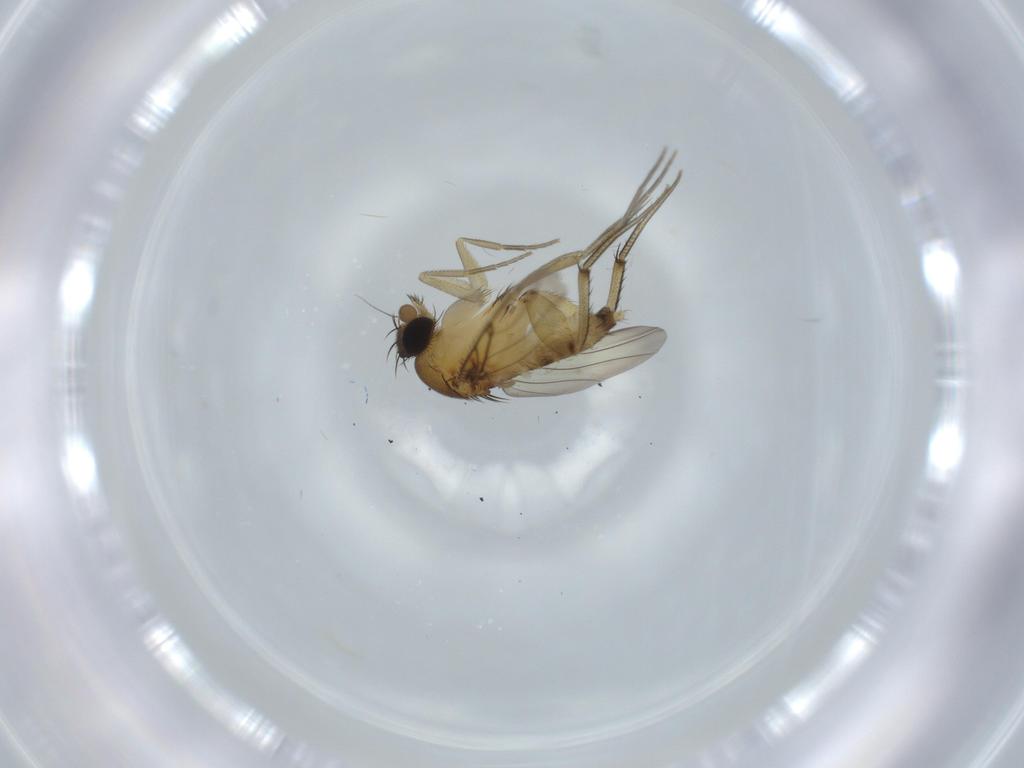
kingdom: Animalia
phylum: Arthropoda
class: Insecta
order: Diptera
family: Phoridae
